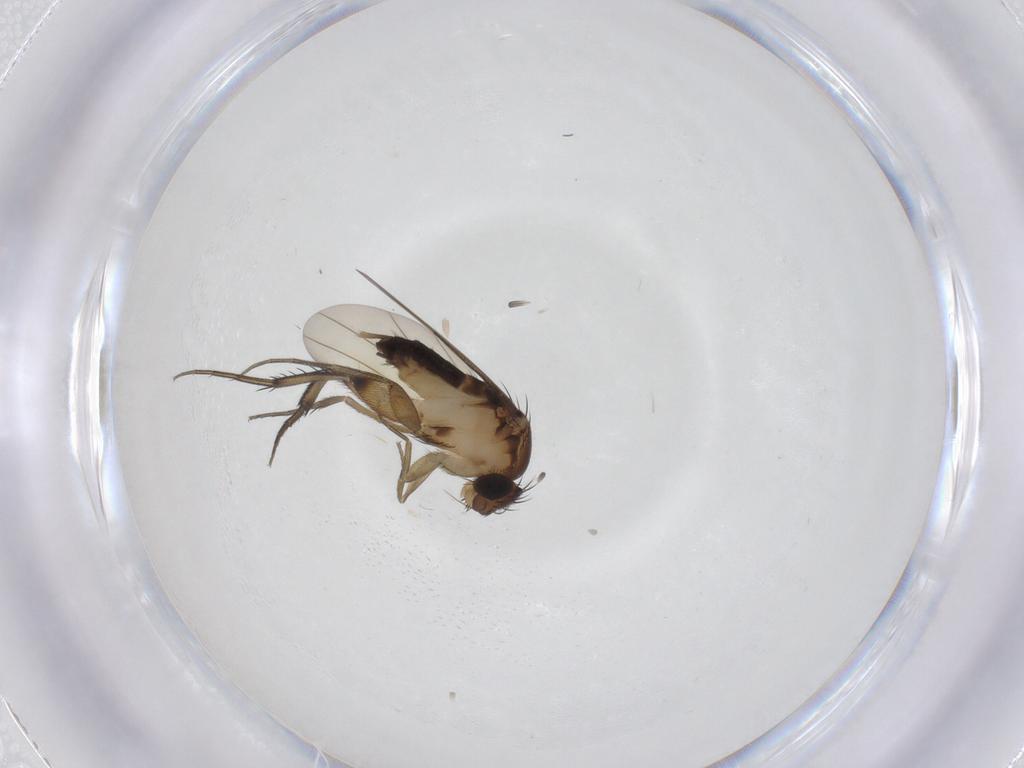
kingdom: Animalia
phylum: Arthropoda
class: Insecta
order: Diptera
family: Phoridae
